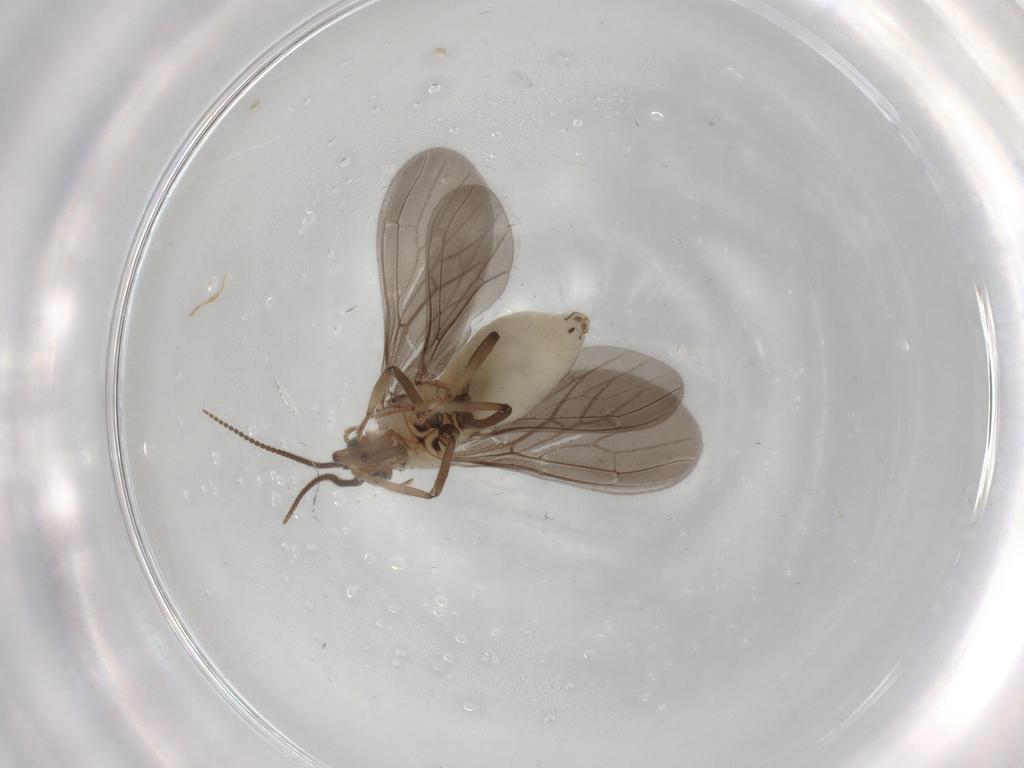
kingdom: Animalia
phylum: Arthropoda
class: Insecta
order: Neuroptera
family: Coniopterygidae
